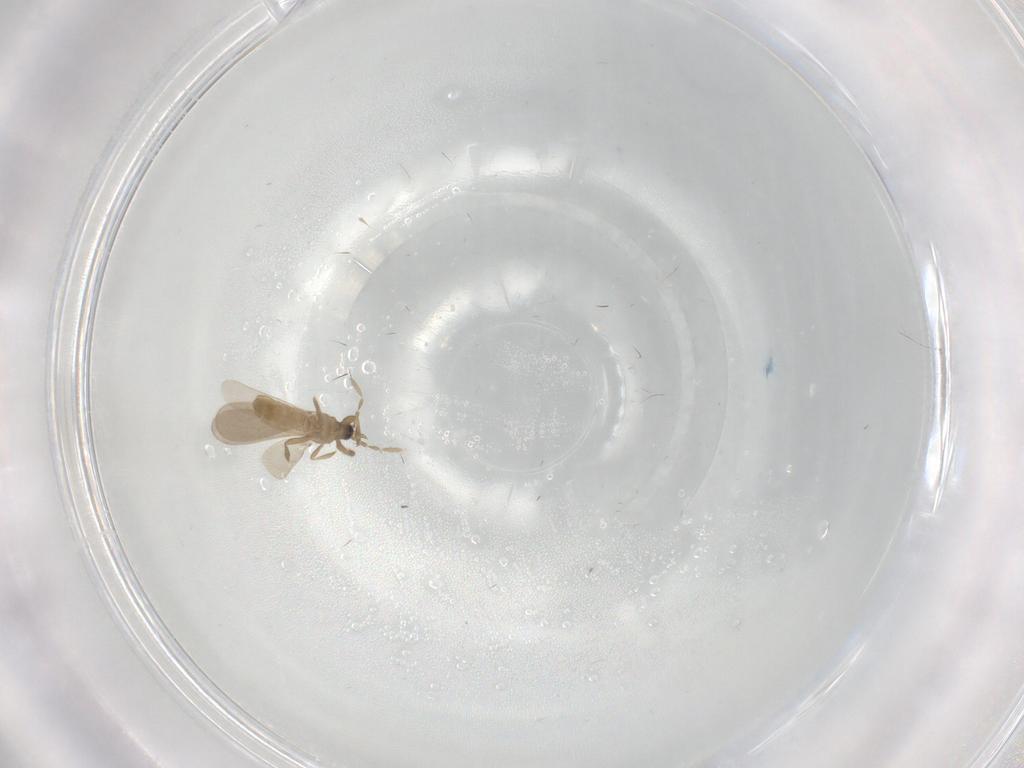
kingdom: Animalia
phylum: Arthropoda
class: Insecta
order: Hemiptera
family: Enicocephalidae
